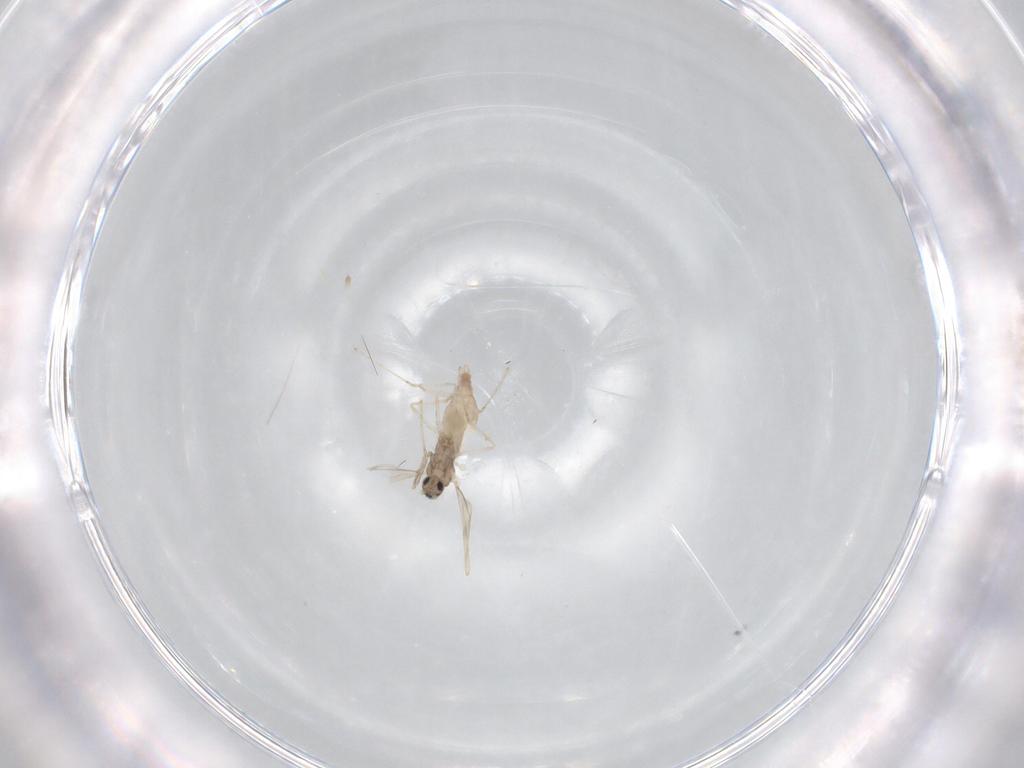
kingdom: Animalia
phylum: Arthropoda
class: Insecta
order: Diptera
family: Cecidomyiidae
